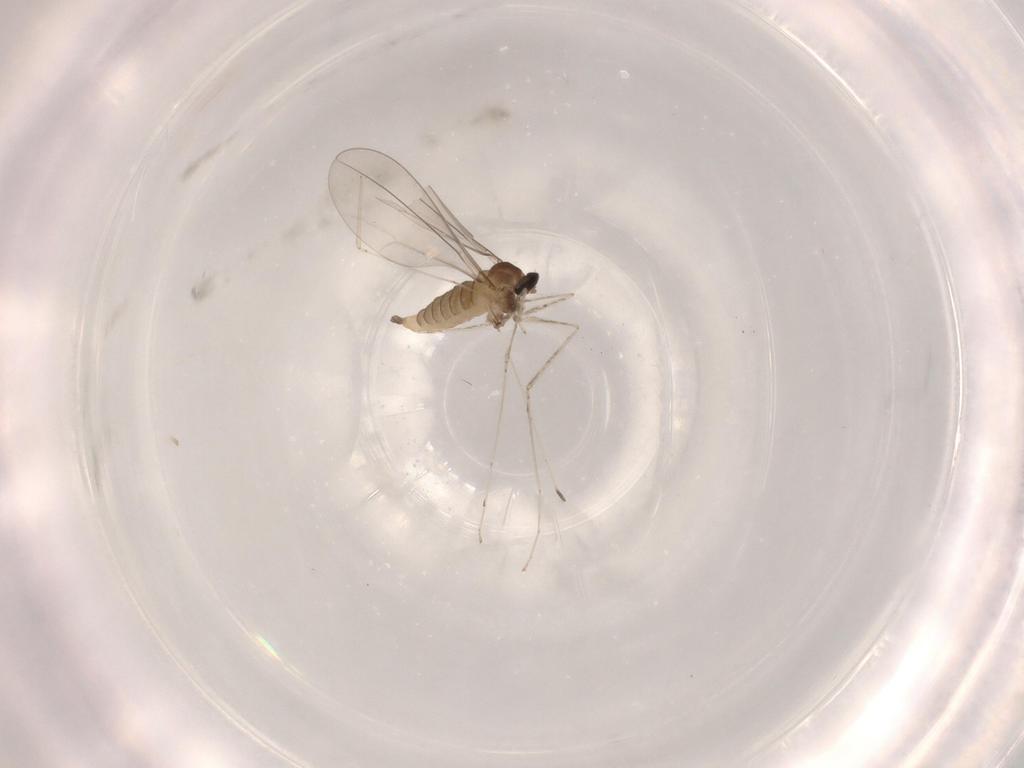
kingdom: Animalia
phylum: Arthropoda
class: Insecta
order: Diptera
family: Cecidomyiidae
